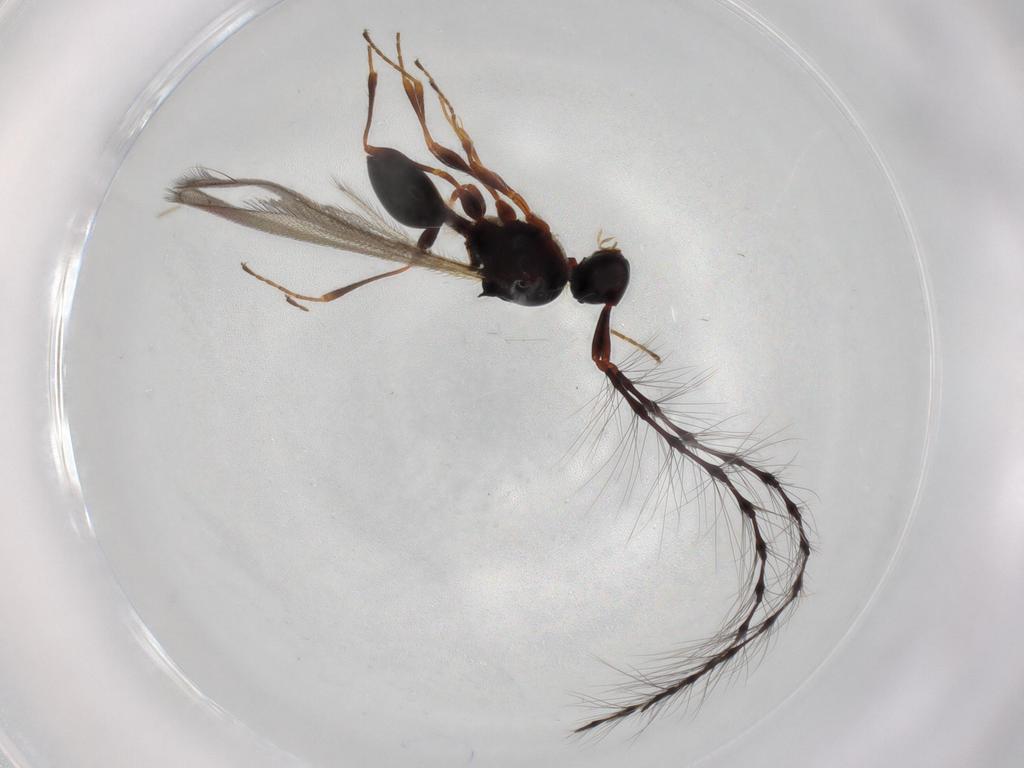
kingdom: Animalia
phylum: Arthropoda
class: Insecta
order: Hymenoptera
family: Diapriidae
